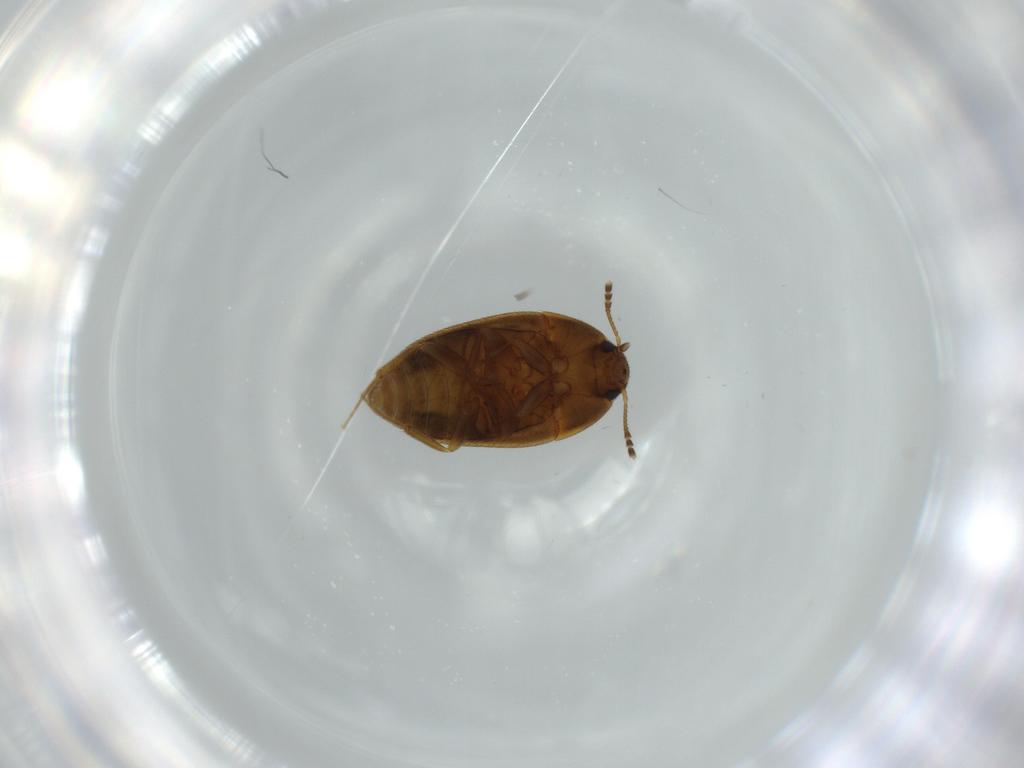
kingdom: Animalia
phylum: Arthropoda
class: Insecta
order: Coleoptera
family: Mycetophagidae
